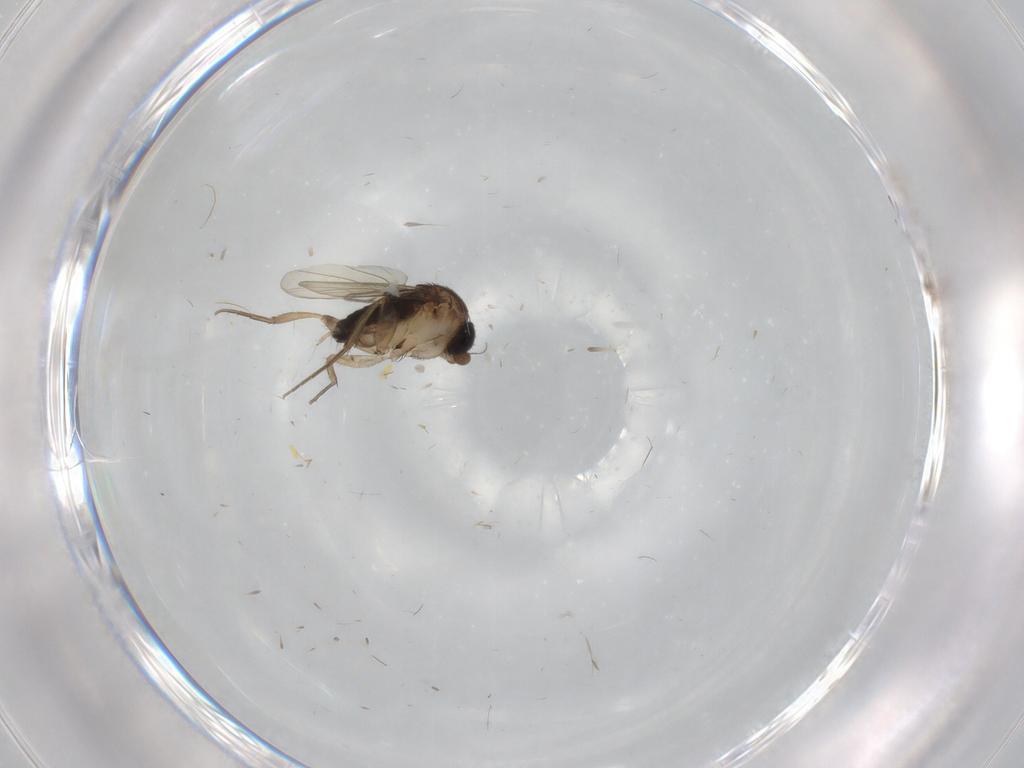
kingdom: Animalia
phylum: Arthropoda
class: Insecta
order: Diptera
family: Phoridae
